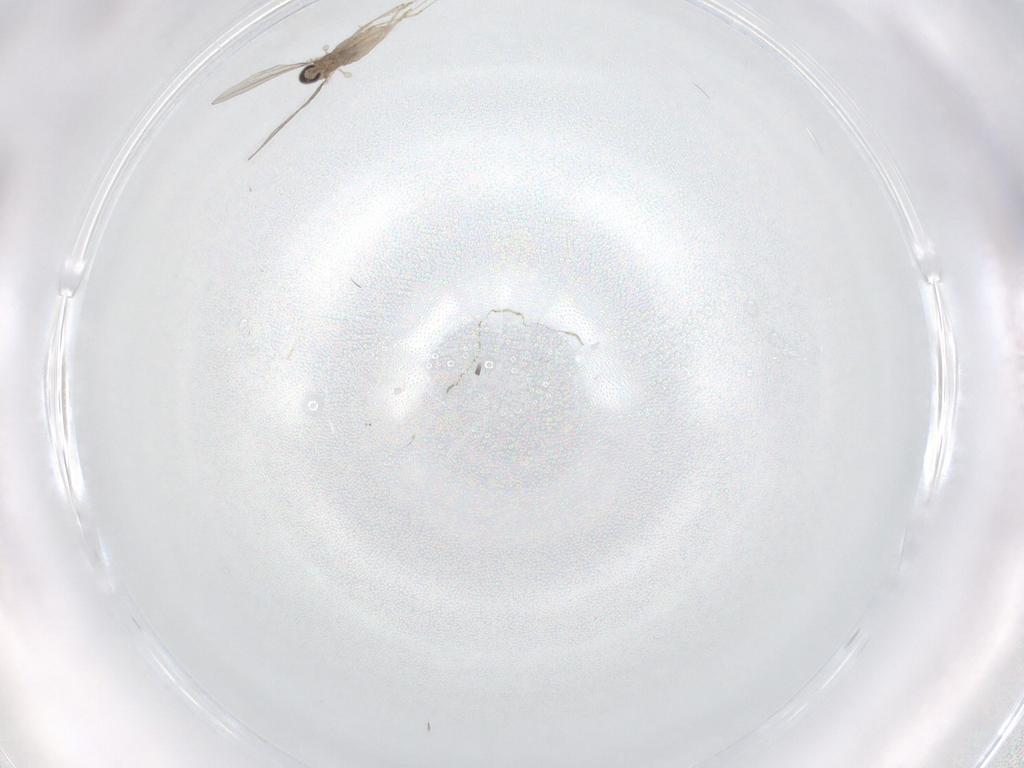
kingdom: Animalia
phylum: Arthropoda
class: Insecta
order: Diptera
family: Cecidomyiidae
